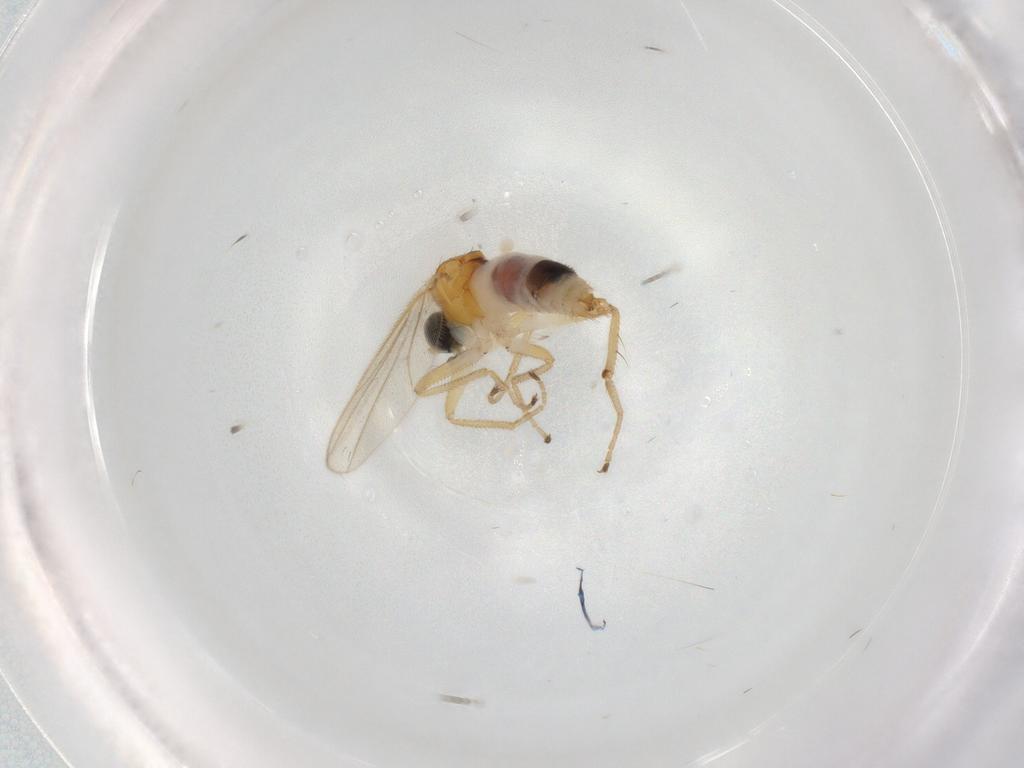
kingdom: Animalia
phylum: Arthropoda
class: Insecta
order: Diptera
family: Hybotidae
